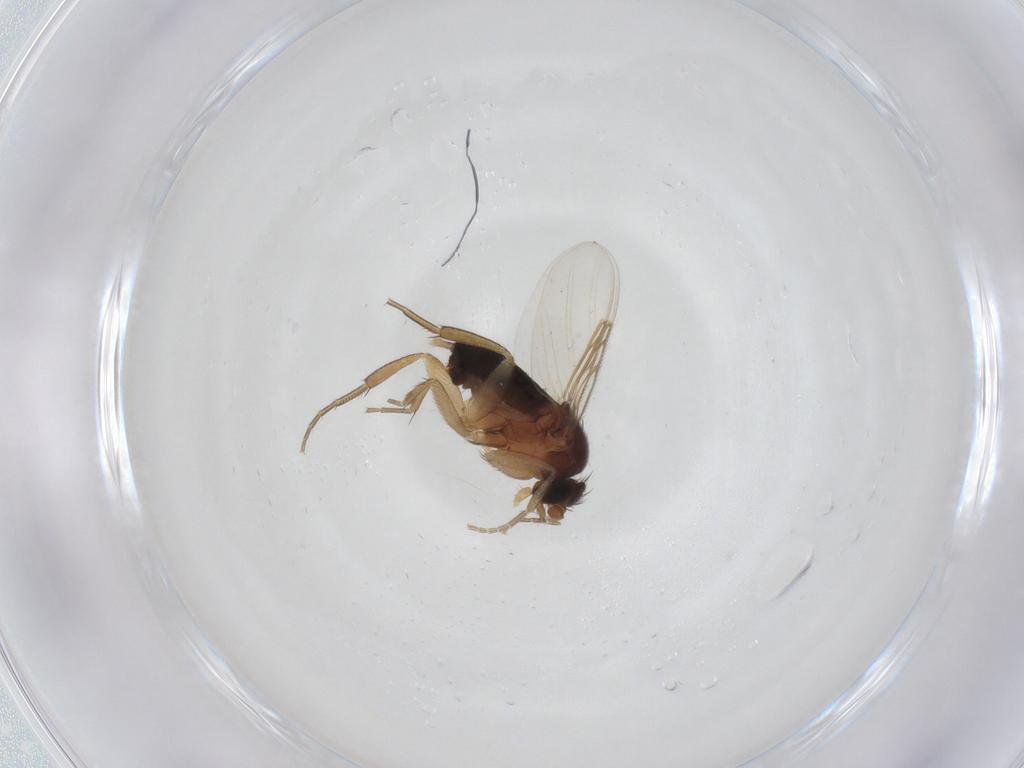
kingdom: Animalia
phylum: Arthropoda
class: Insecta
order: Diptera
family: Phoridae
